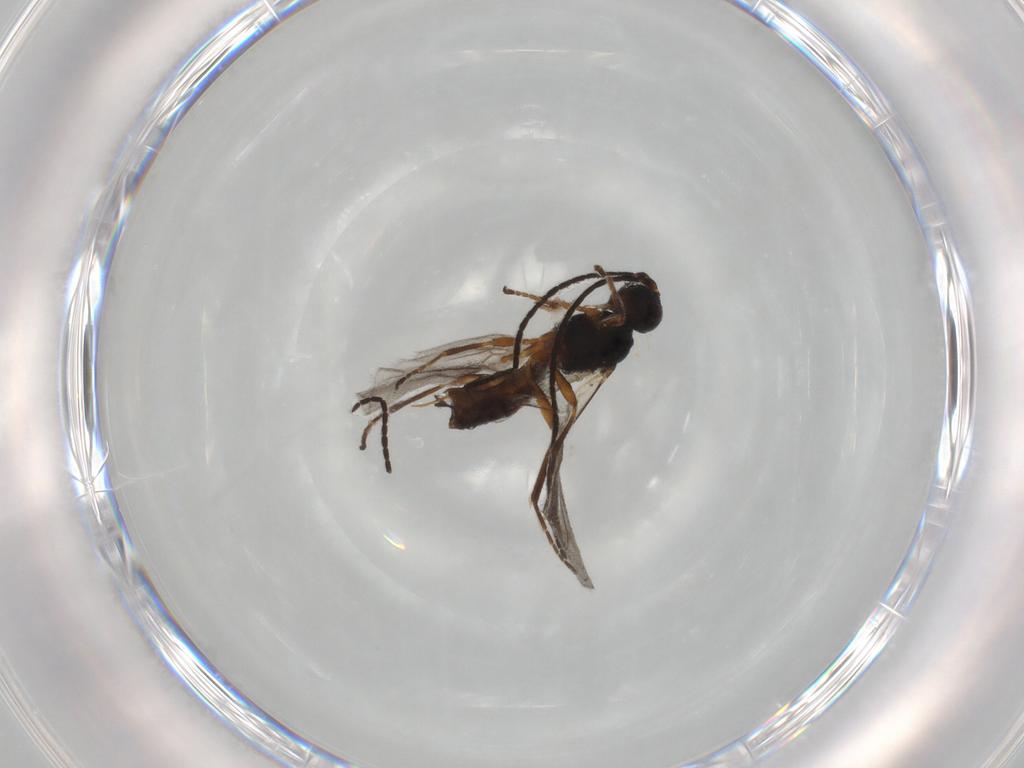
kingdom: Animalia
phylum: Arthropoda
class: Insecta
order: Hymenoptera
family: Braconidae
